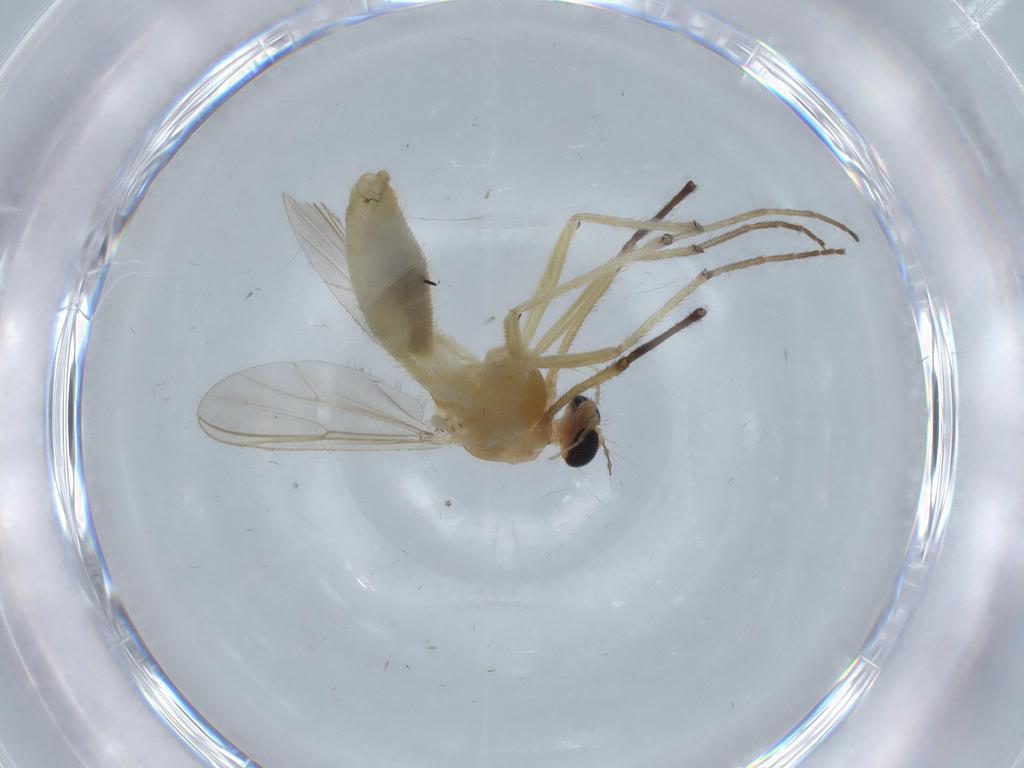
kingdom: Animalia
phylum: Arthropoda
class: Insecta
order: Diptera
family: Chironomidae
